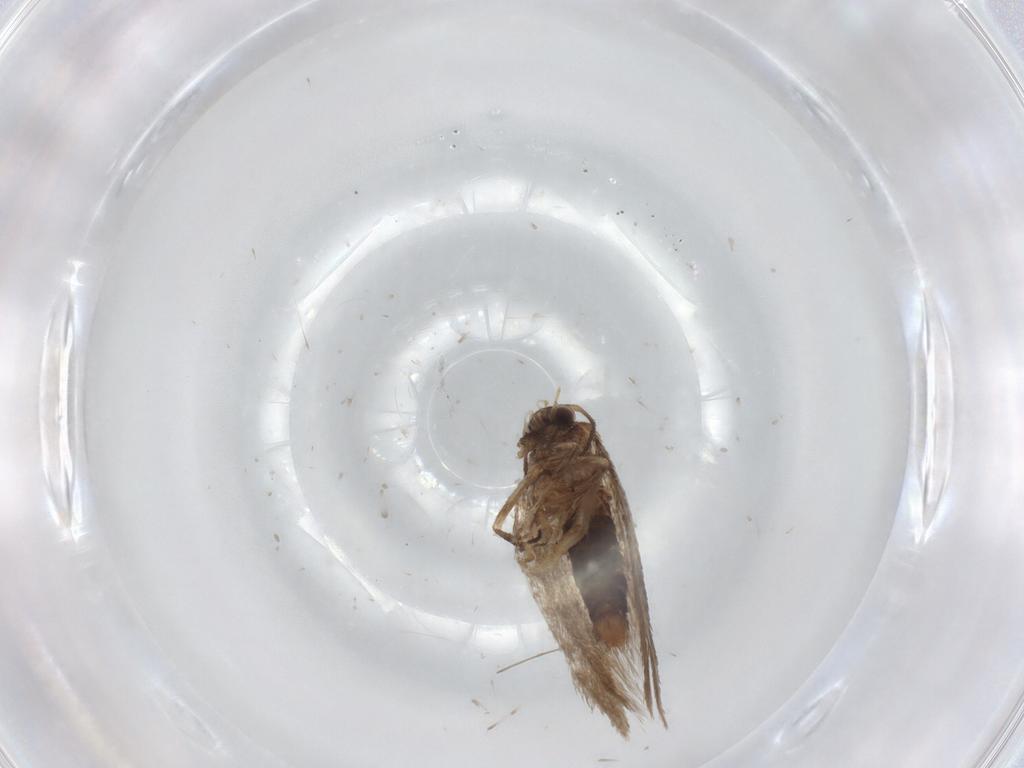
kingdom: Animalia
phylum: Arthropoda
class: Insecta
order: Lepidoptera
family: Nepticulidae
